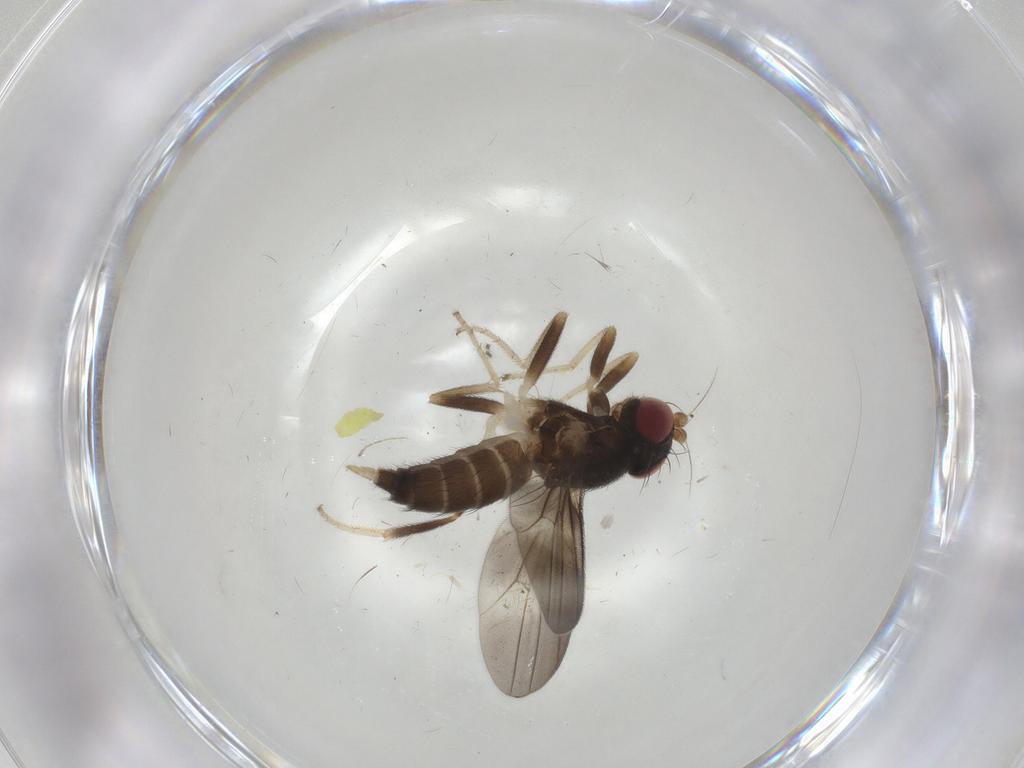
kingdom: Animalia
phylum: Arthropoda
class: Insecta
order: Diptera
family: Clusiidae
